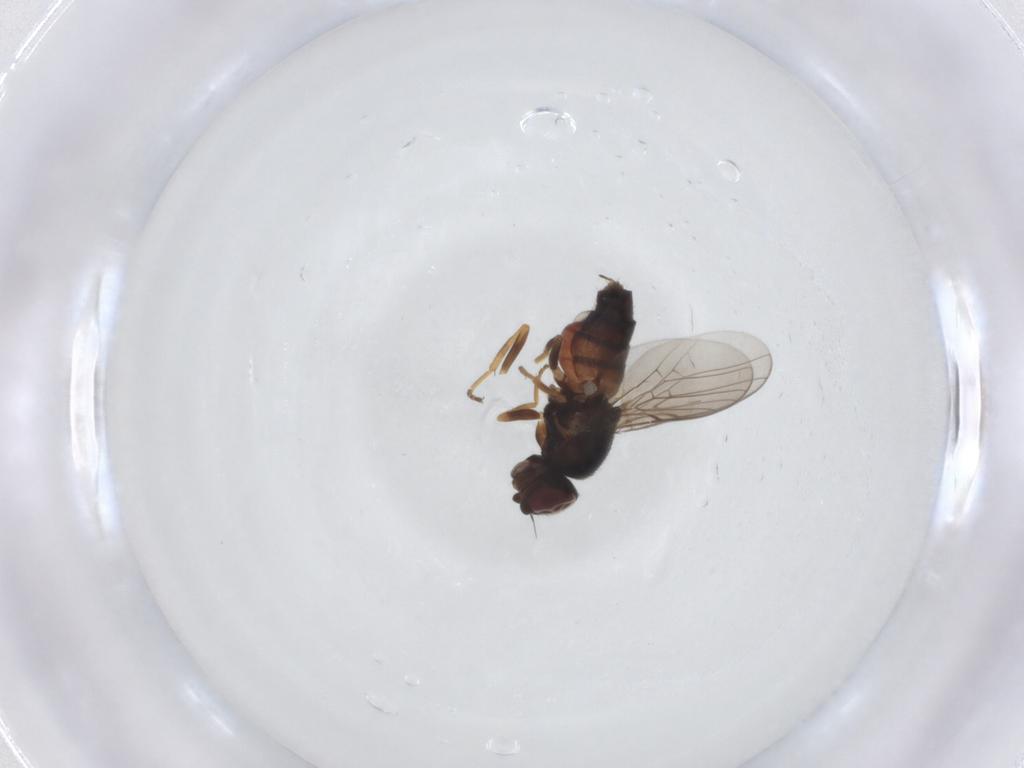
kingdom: Animalia
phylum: Arthropoda
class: Insecta
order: Diptera
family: Chloropidae
